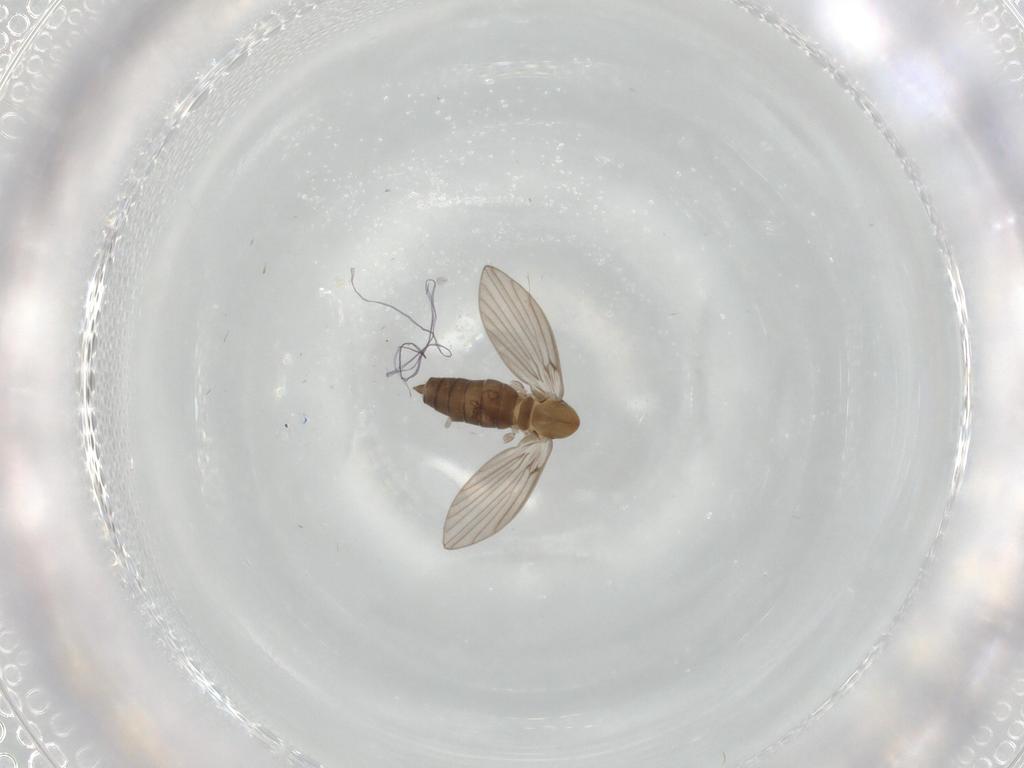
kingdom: Animalia
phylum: Arthropoda
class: Insecta
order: Diptera
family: Psychodidae
